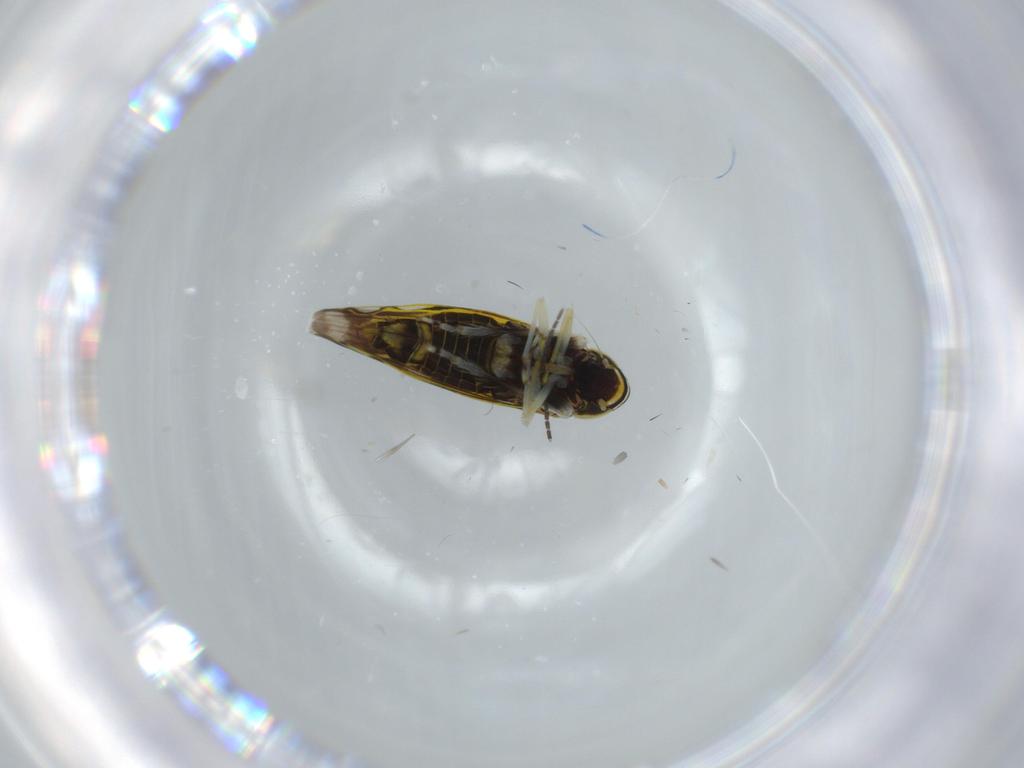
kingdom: Animalia
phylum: Arthropoda
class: Insecta
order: Hemiptera
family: Cicadellidae
